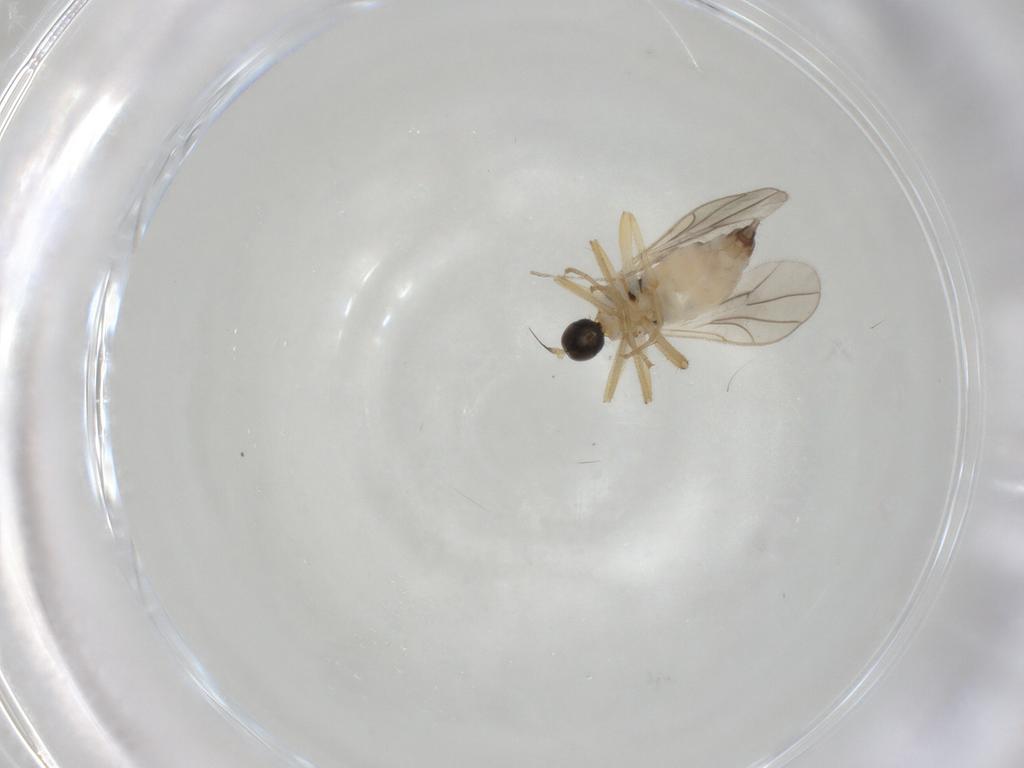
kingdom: Animalia
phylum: Arthropoda
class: Insecta
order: Diptera
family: Hybotidae
